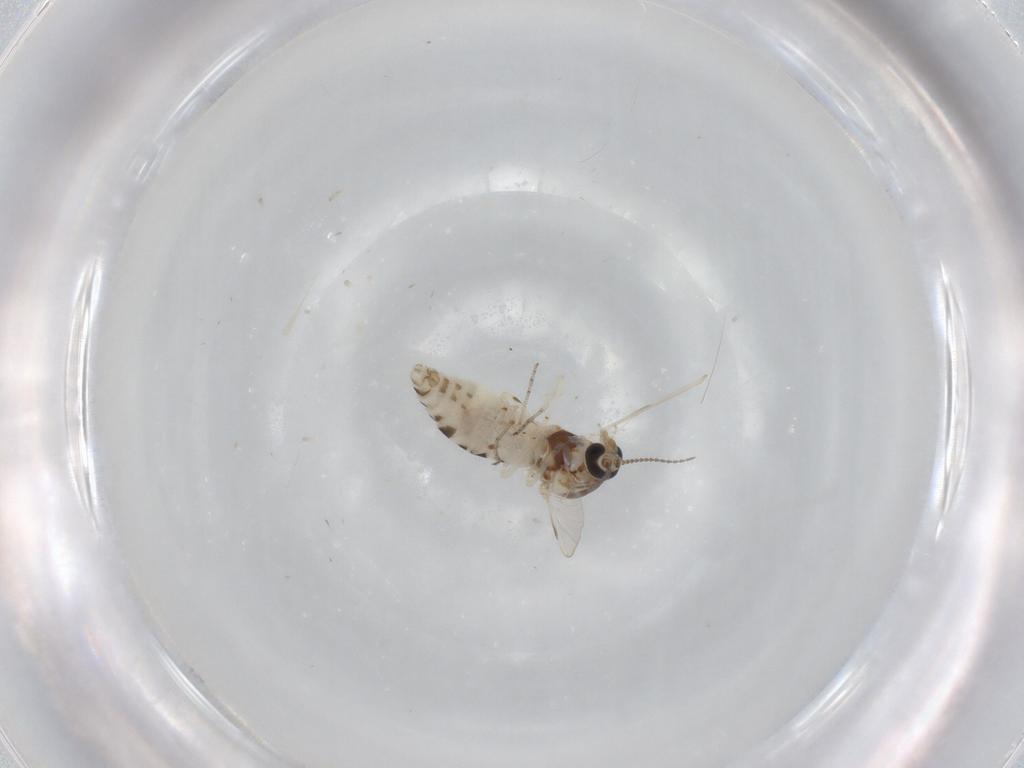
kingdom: Animalia
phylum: Arthropoda
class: Insecta
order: Diptera
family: Ceratopogonidae
